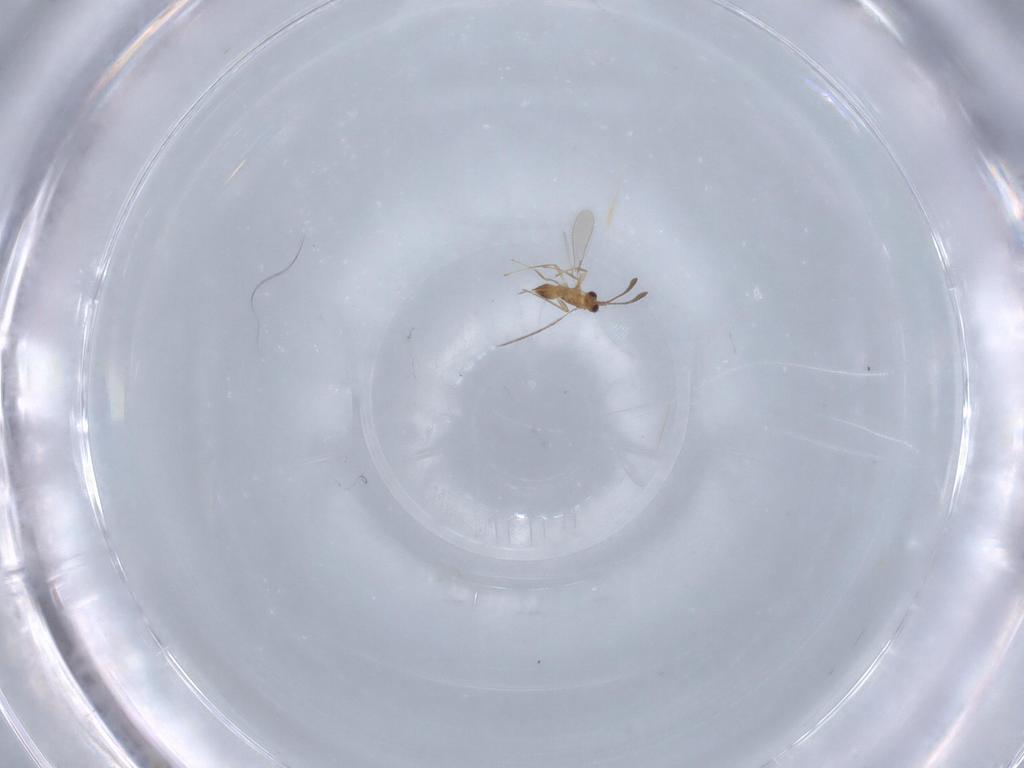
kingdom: Animalia
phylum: Arthropoda
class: Insecta
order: Hymenoptera
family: Mymaridae
